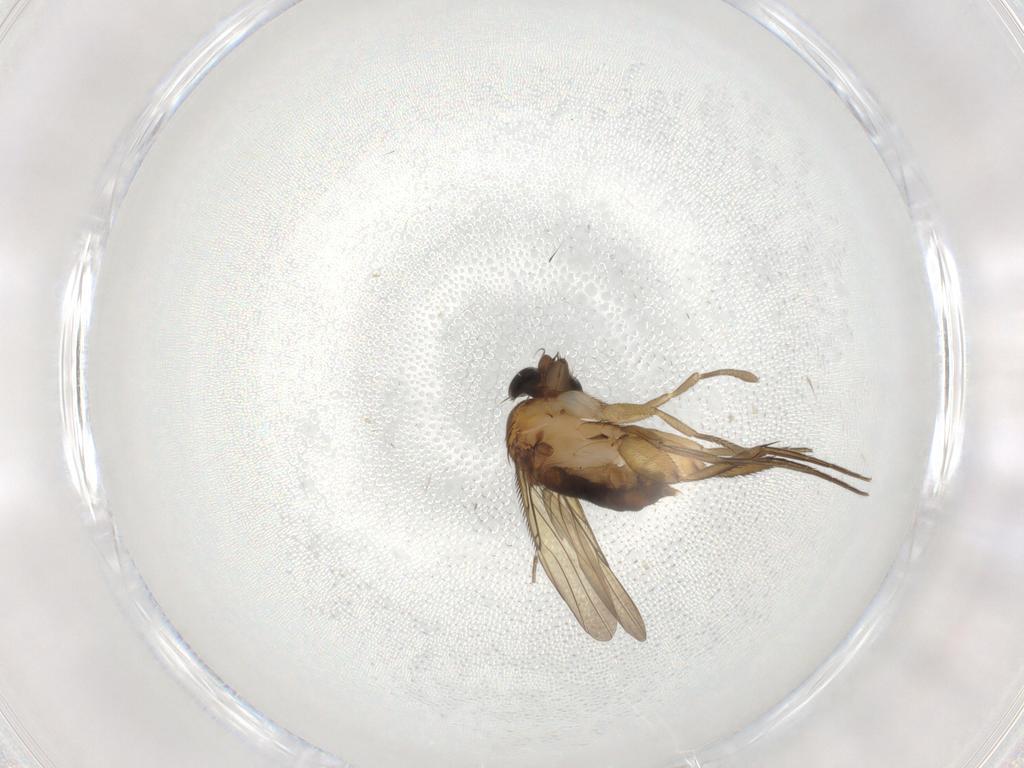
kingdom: Animalia
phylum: Arthropoda
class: Insecta
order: Diptera
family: Phoridae
